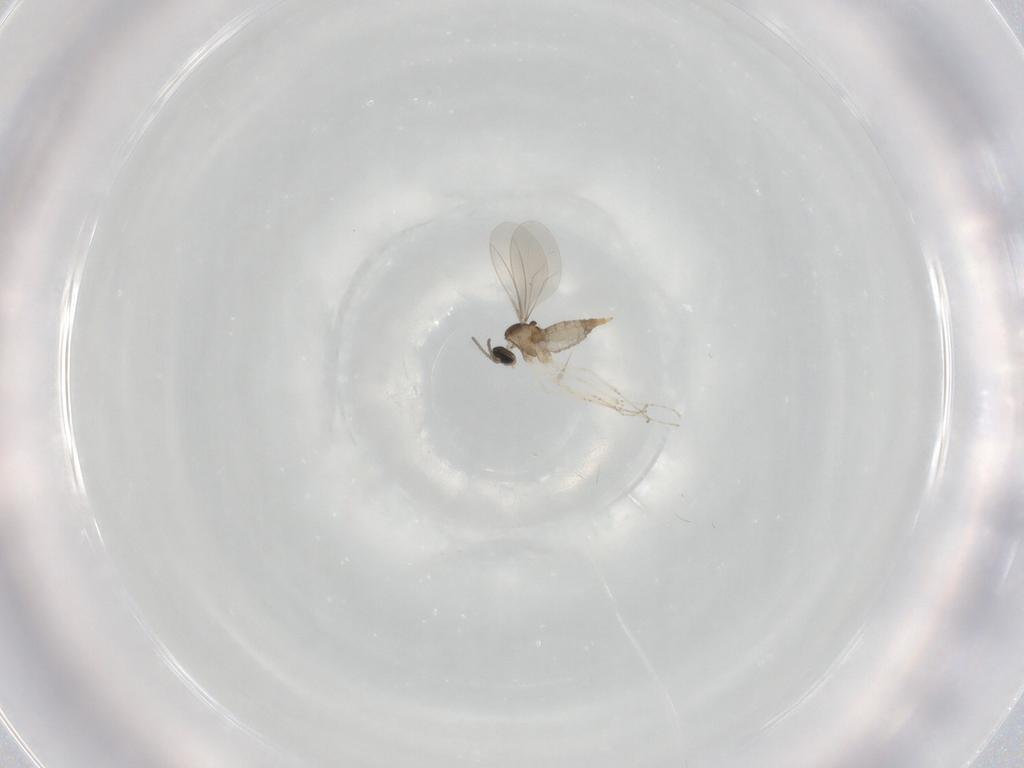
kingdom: Animalia
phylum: Arthropoda
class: Insecta
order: Diptera
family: Cecidomyiidae
